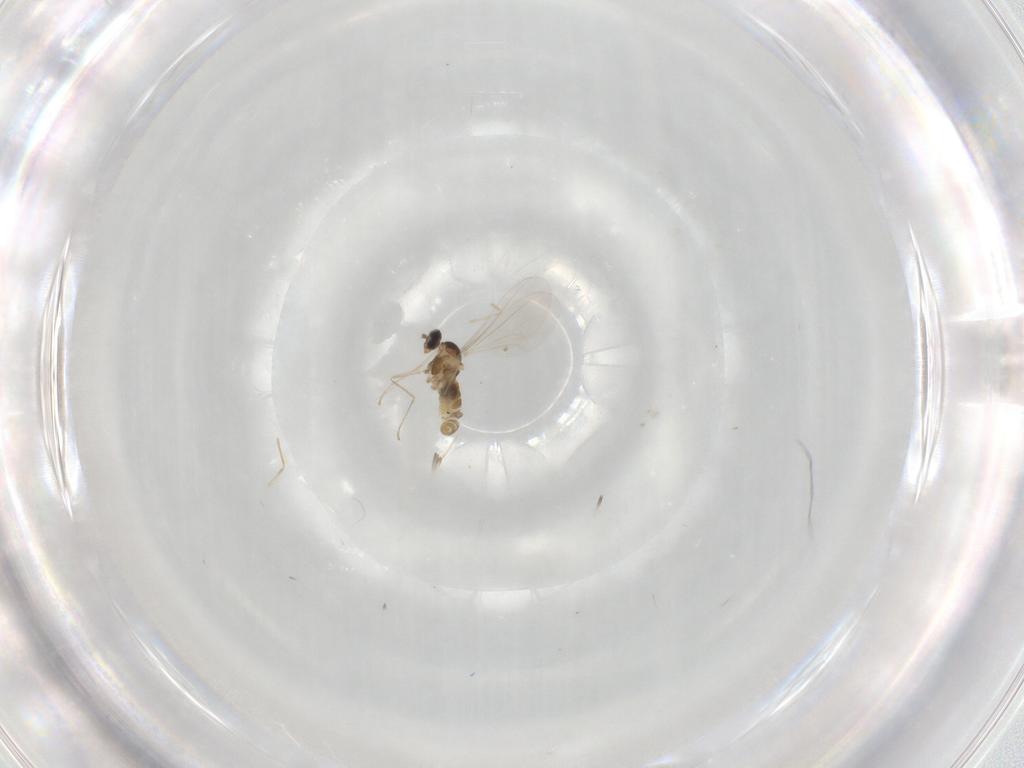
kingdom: Animalia
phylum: Arthropoda
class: Insecta
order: Diptera
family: Cecidomyiidae
